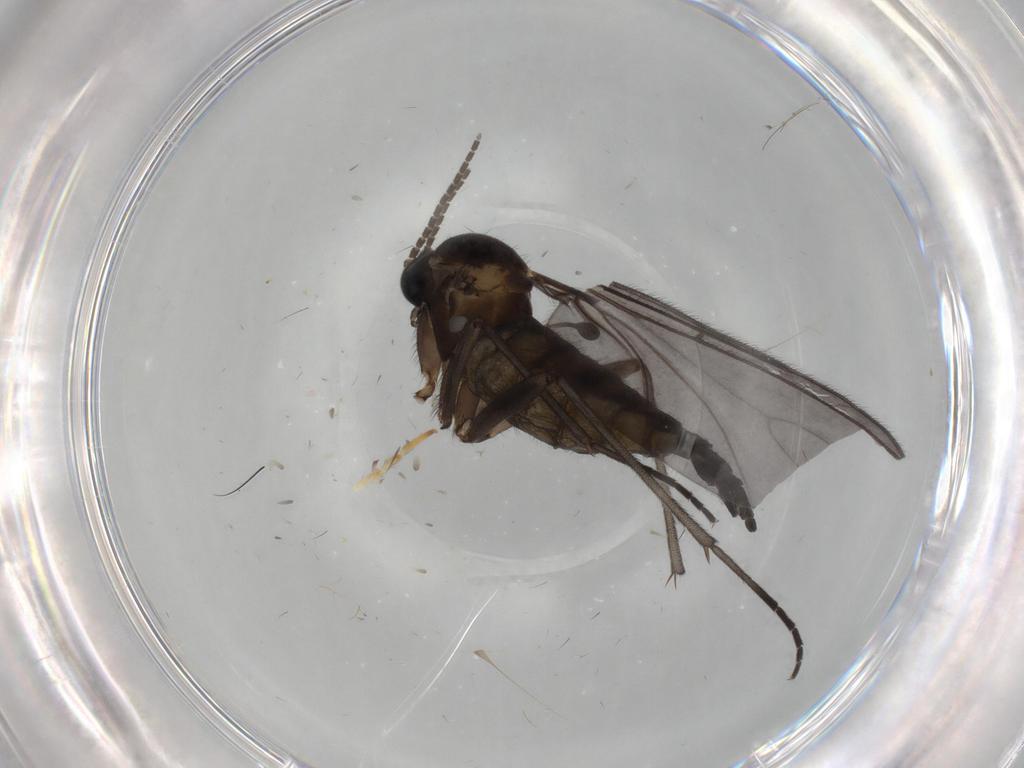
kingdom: Animalia
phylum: Arthropoda
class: Insecta
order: Diptera
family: Sciaridae
